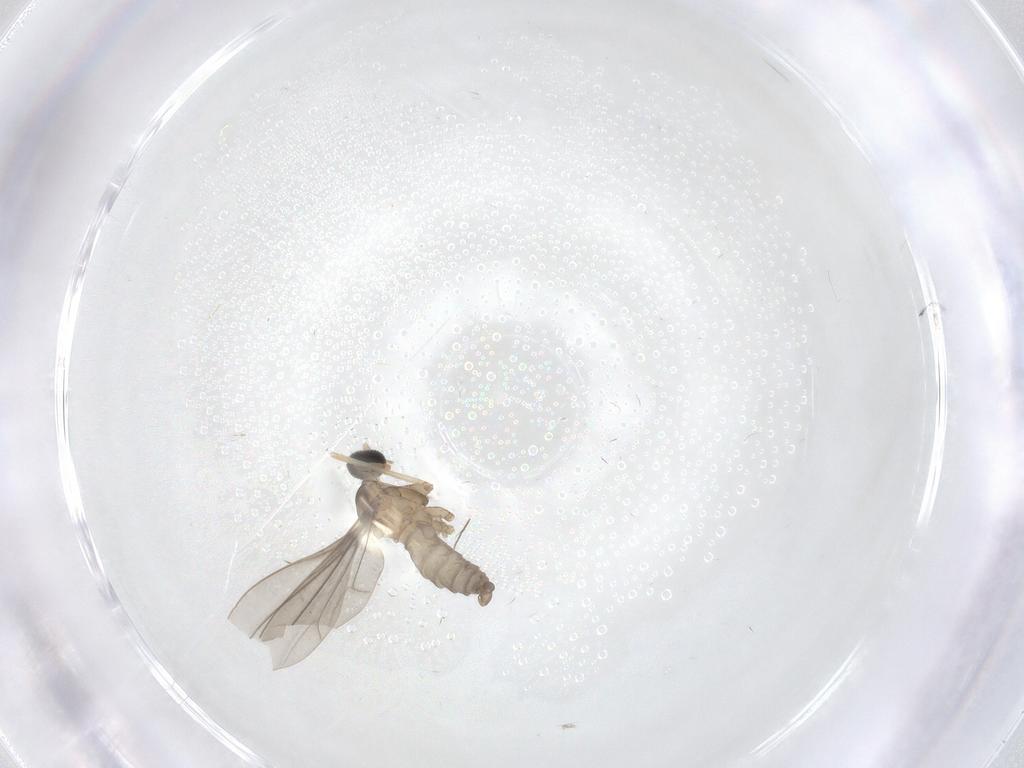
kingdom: Animalia
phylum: Arthropoda
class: Insecta
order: Diptera
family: Cecidomyiidae
